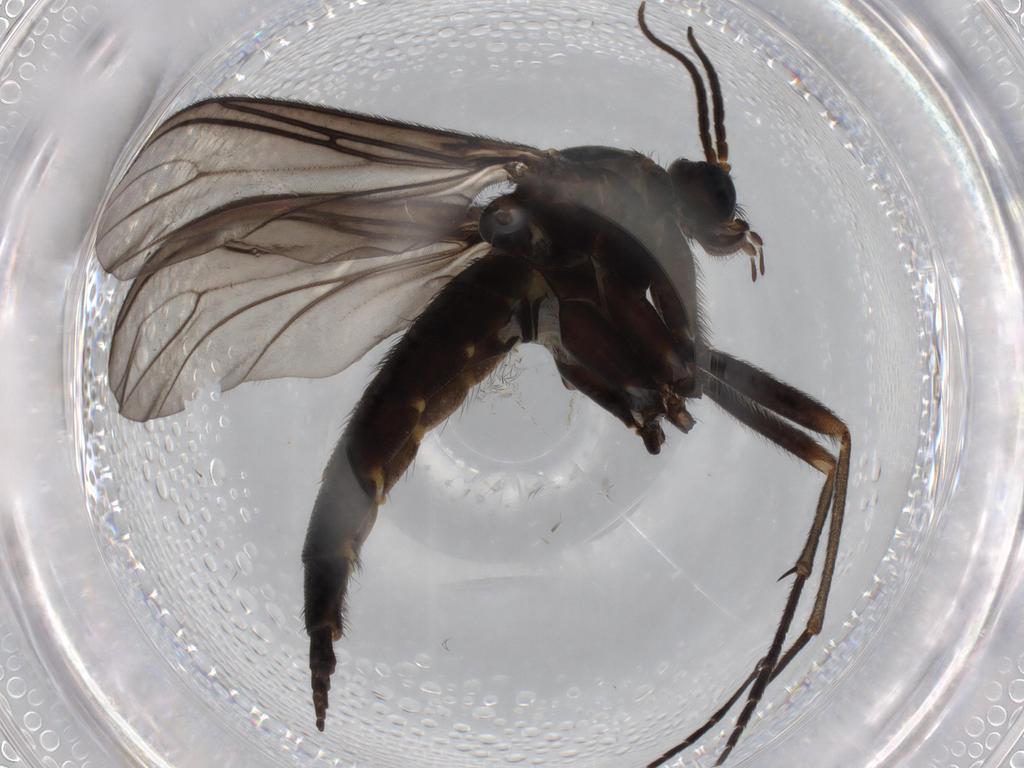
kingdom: Animalia
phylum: Arthropoda
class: Insecta
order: Diptera
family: Sciaridae
